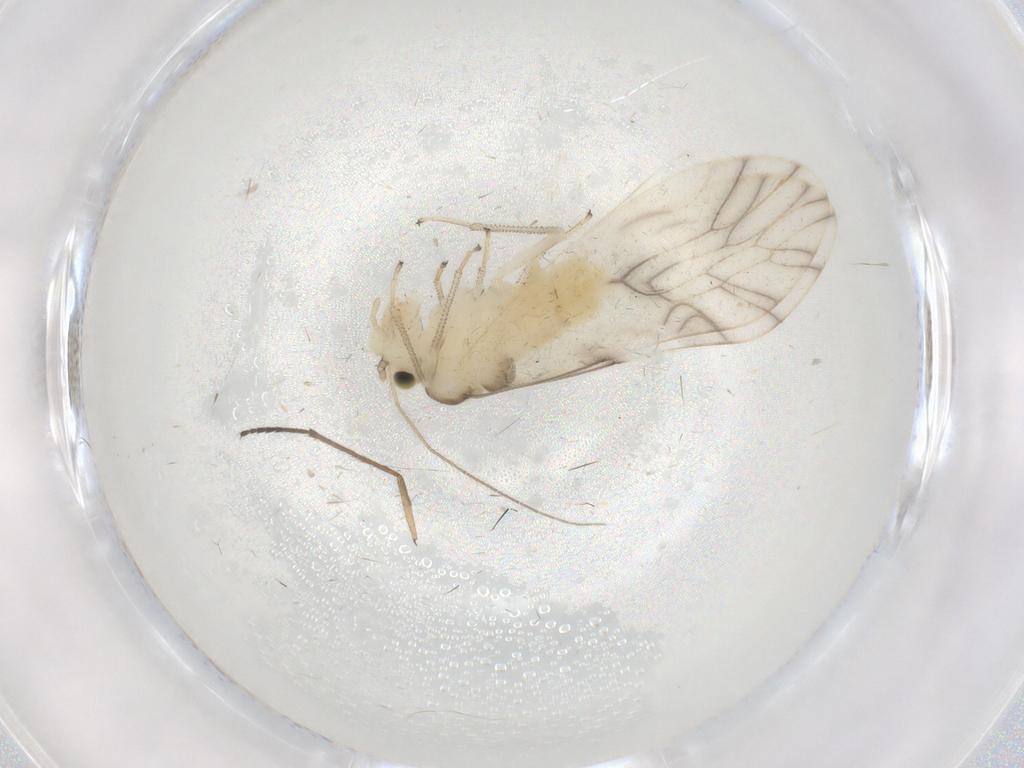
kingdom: Animalia
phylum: Arthropoda
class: Insecta
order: Psocodea
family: Caeciliusidae
